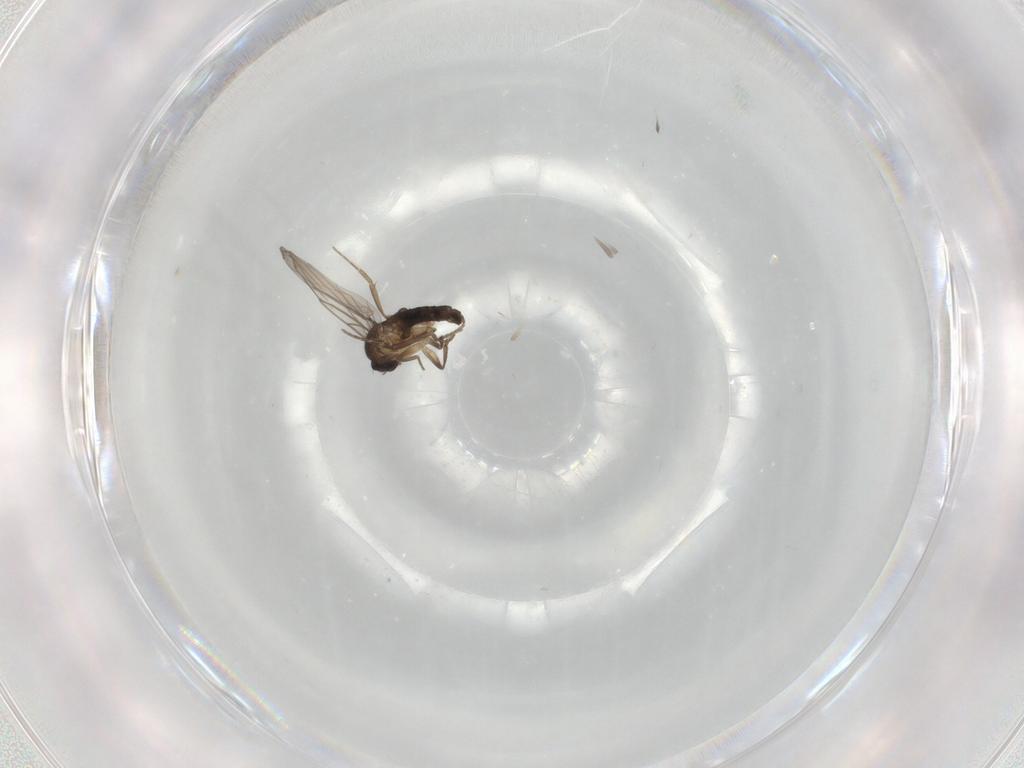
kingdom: Animalia
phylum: Arthropoda
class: Insecta
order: Diptera
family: Phoridae
